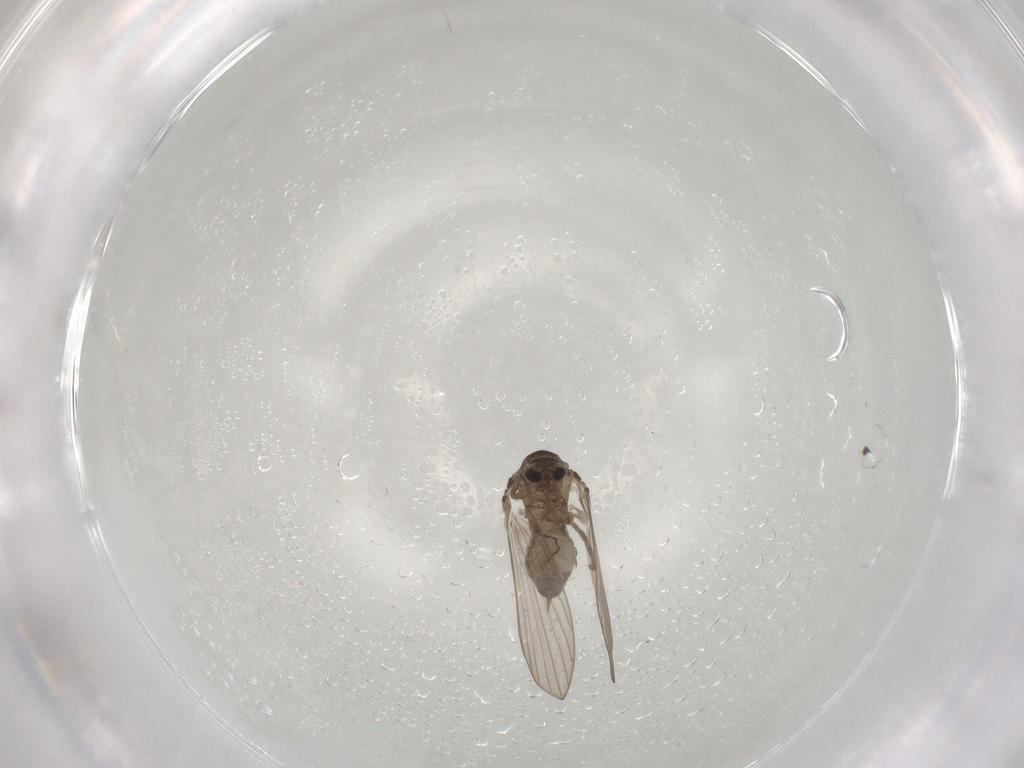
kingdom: Animalia
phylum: Arthropoda
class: Insecta
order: Diptera
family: Psychodidae
